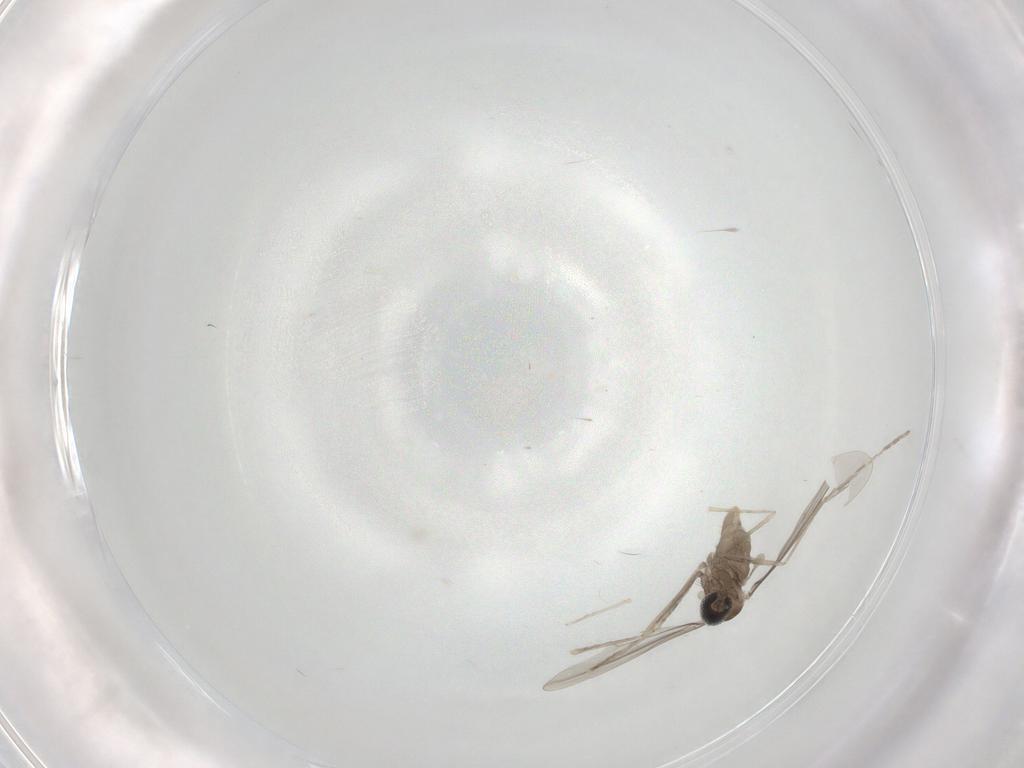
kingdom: Animalia
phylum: Arthropoda
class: Insecta
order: Diptera
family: Cecidomyiidae
